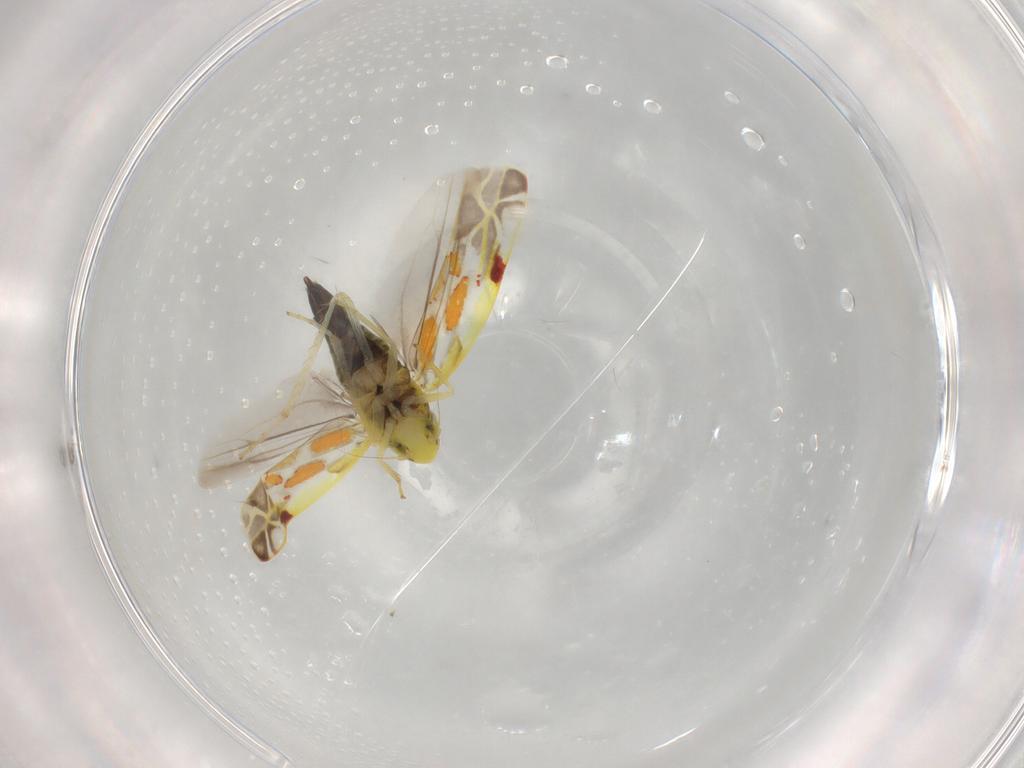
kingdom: Animalia
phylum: Arthropoda
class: Insecta
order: Hemiptera
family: Cicadellidae
